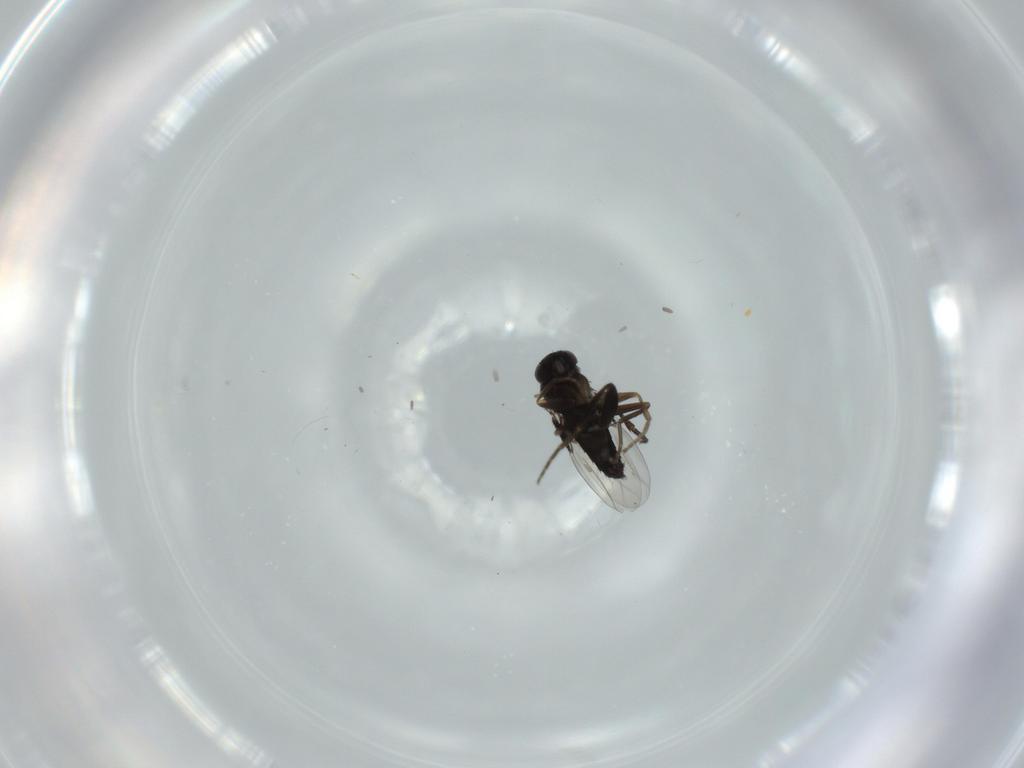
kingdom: Animalia
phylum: Arthropoda
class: Insecta
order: Diptera
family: Phoridae
